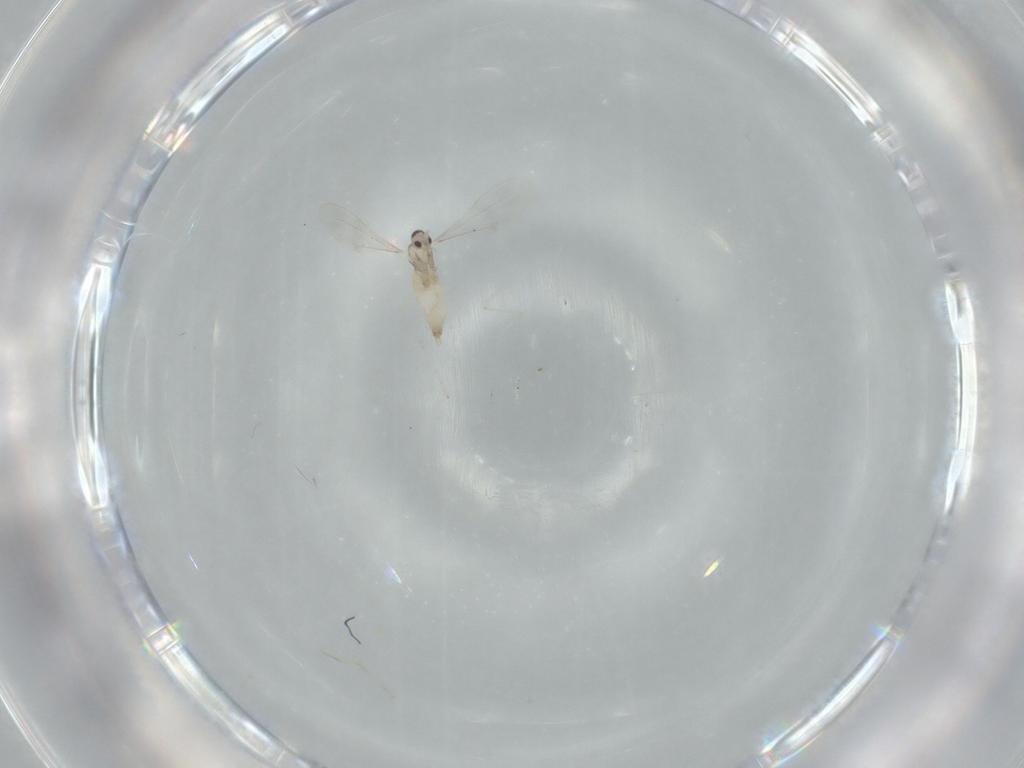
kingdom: Animalia
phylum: Arthropoda
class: Insecta
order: Diptera
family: Cecidomyiidae
